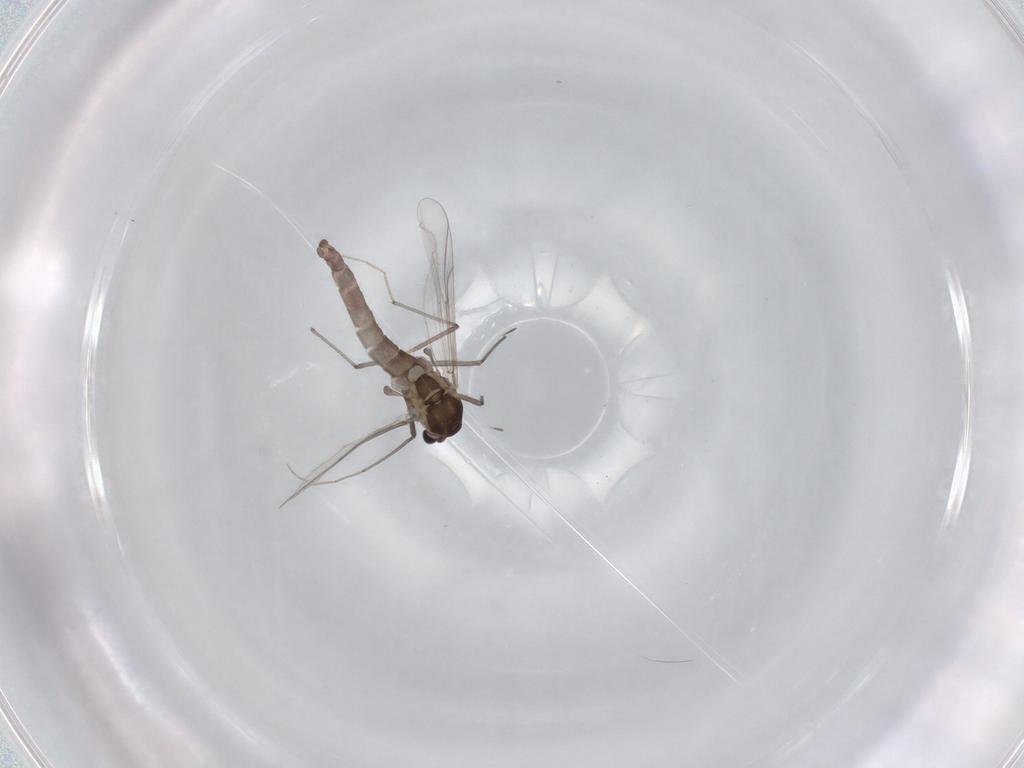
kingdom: Animalia
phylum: Arthropoda
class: Insecta
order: Diptera
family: Chironomidae
